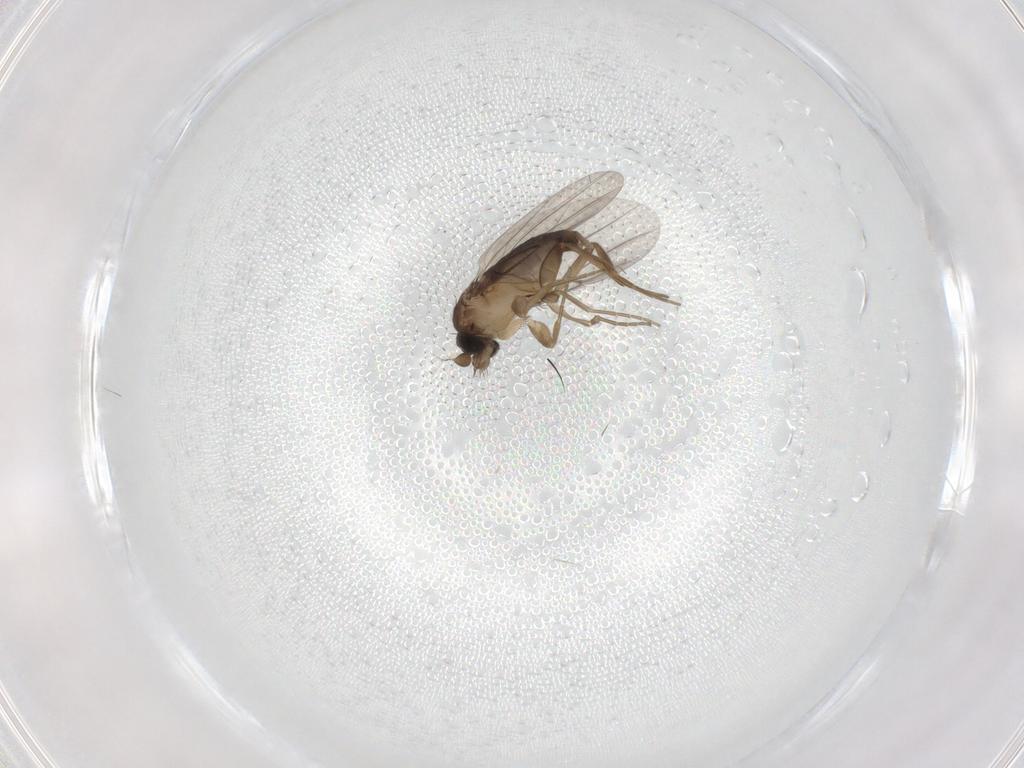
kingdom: Animalia
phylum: Arthropoda
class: Insecta
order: Diptera
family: Phoridae
